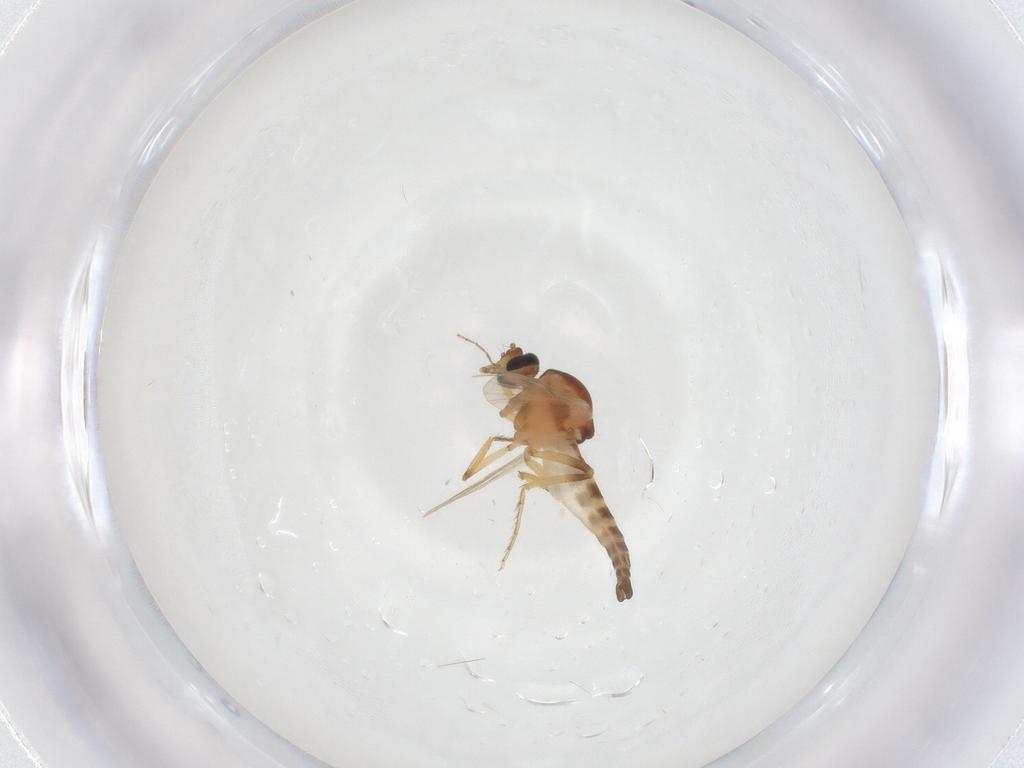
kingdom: Animalia
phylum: Arthropoda
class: Insecta
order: Diptera
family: Ceratopogonidae
